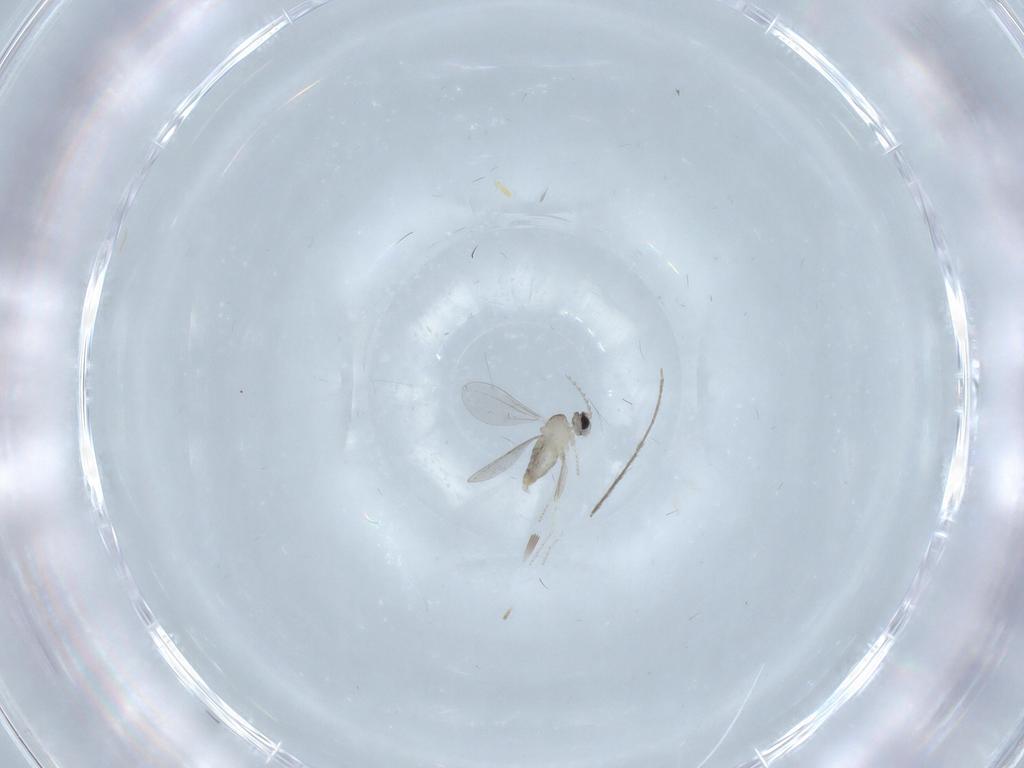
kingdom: Animalia
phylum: Arthropoda
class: Insecta
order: Diptera
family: Cecidomyiidae
